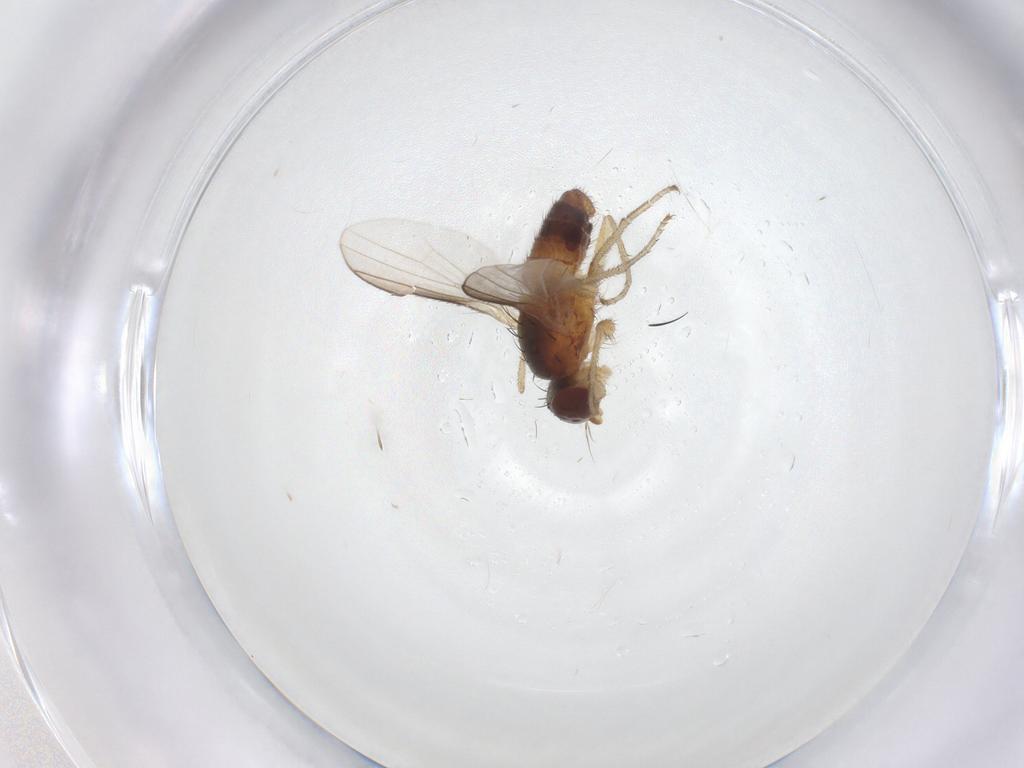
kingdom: Animalia
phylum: Arthropoda
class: Insecta
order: Diptera
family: Heleomyzidae
